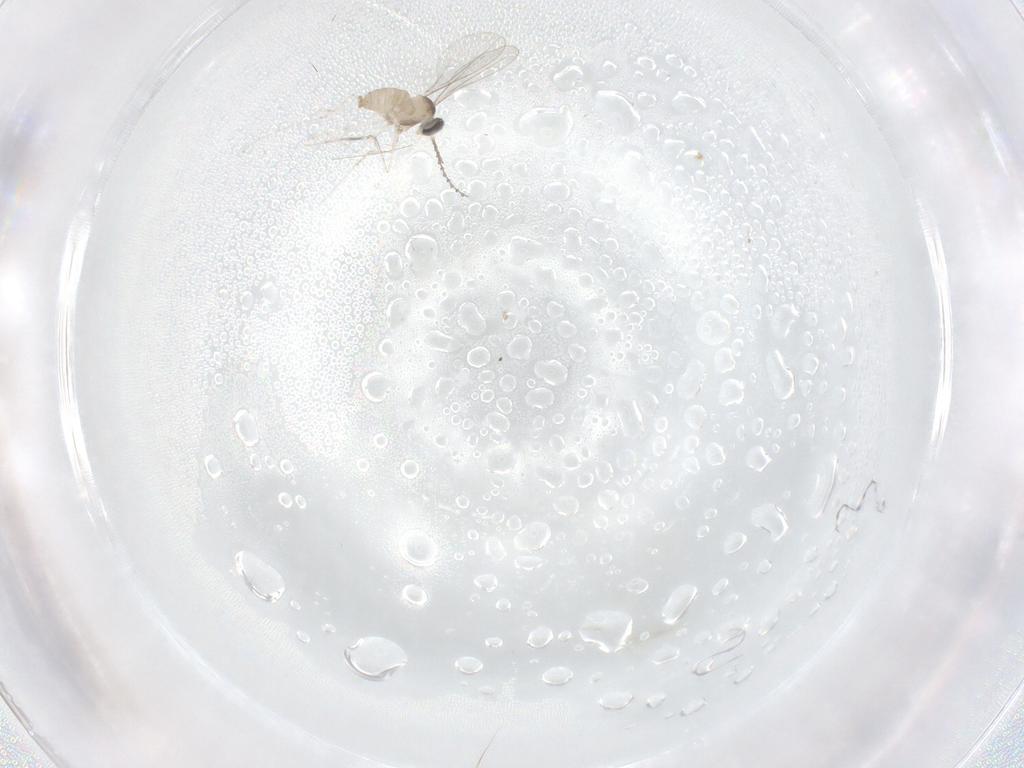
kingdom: Animalia
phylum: Arthropoda
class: Insecta
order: Diptera
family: Cecidomyiidae
